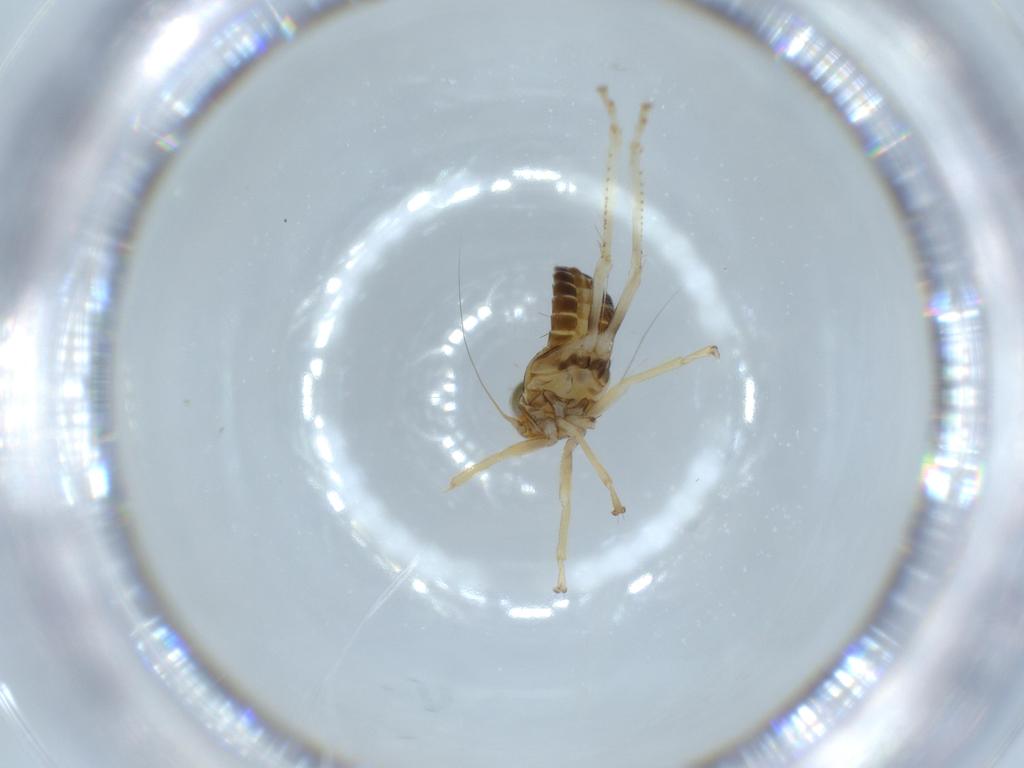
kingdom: Animalia
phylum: Arthropoda
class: Insecta
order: Hemiptera
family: Cicadellidae
